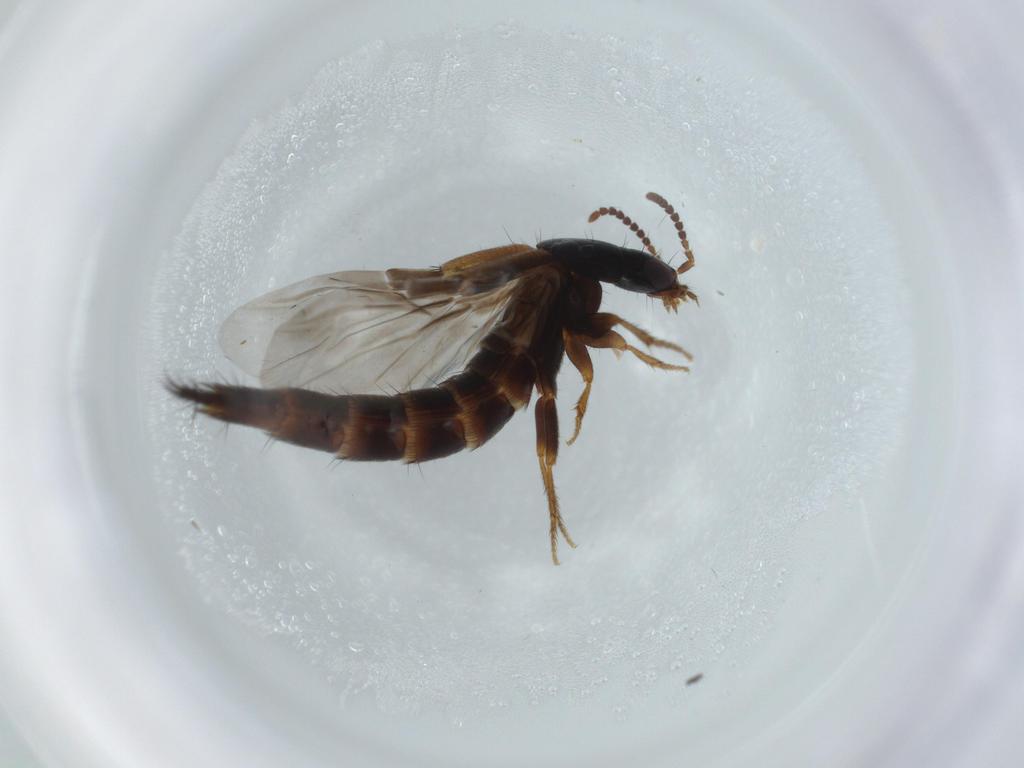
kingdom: Animalia
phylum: Arthropoda
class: Insecta
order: Coleoptera
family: Staphylinidae
